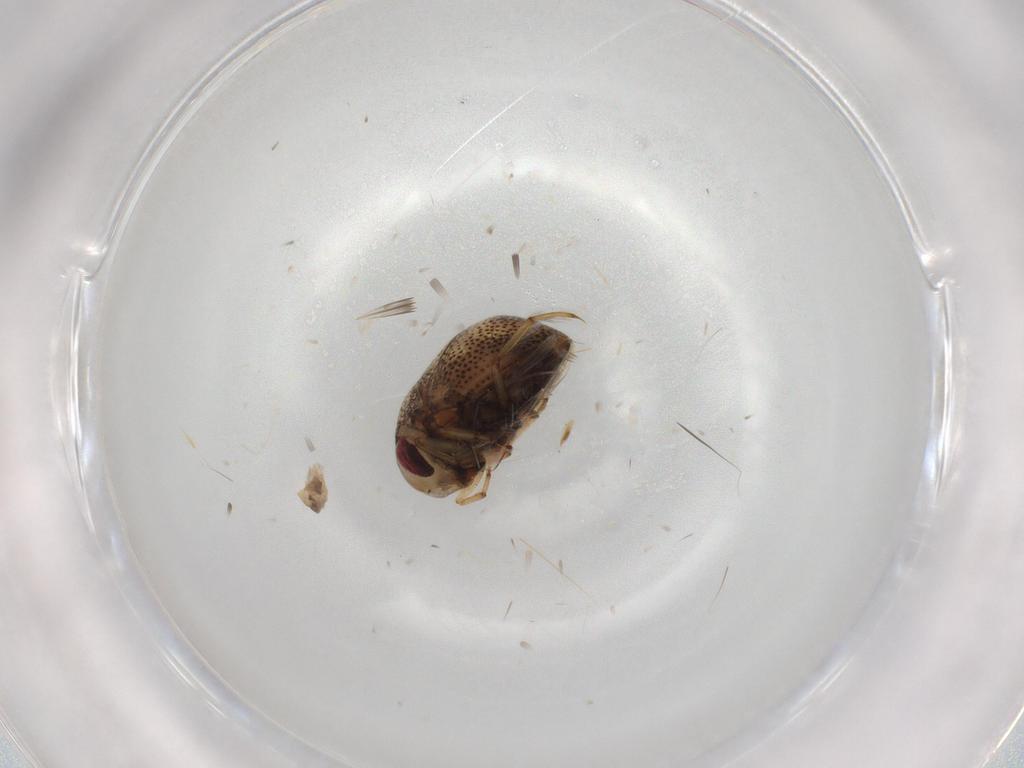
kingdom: Animalia
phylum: Arthropoda
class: Insecta
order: Hemiptera
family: Pleidae
